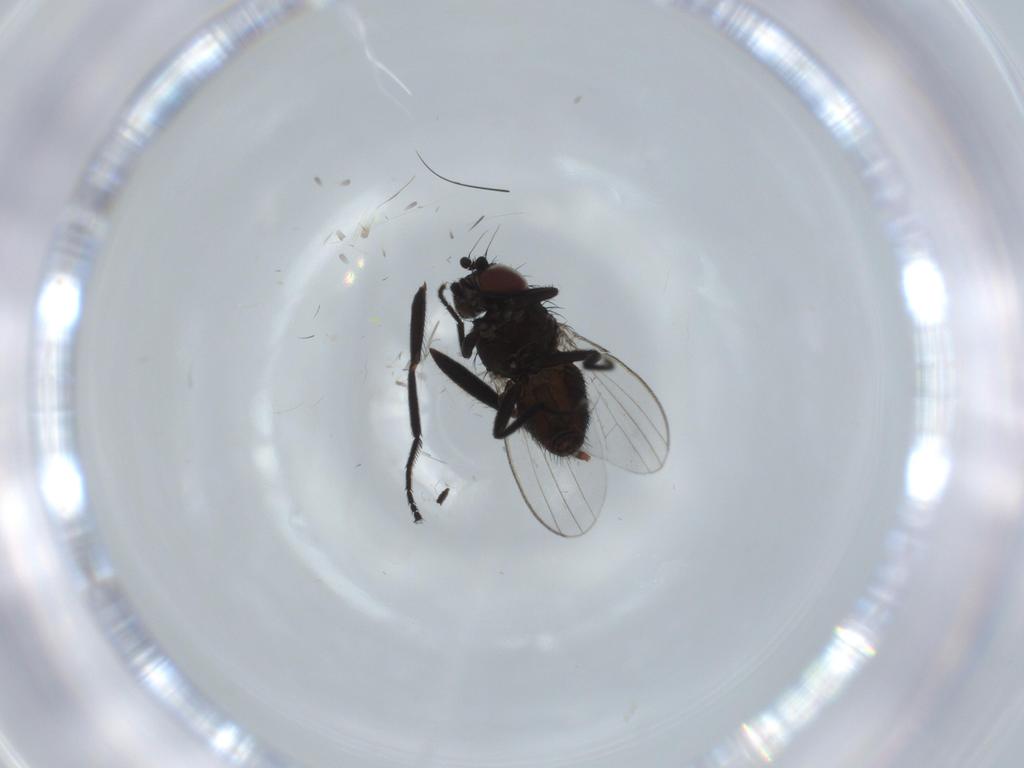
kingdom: Animalia
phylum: Arthropoda
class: Insecta
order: Diptera
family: Milichiidae
